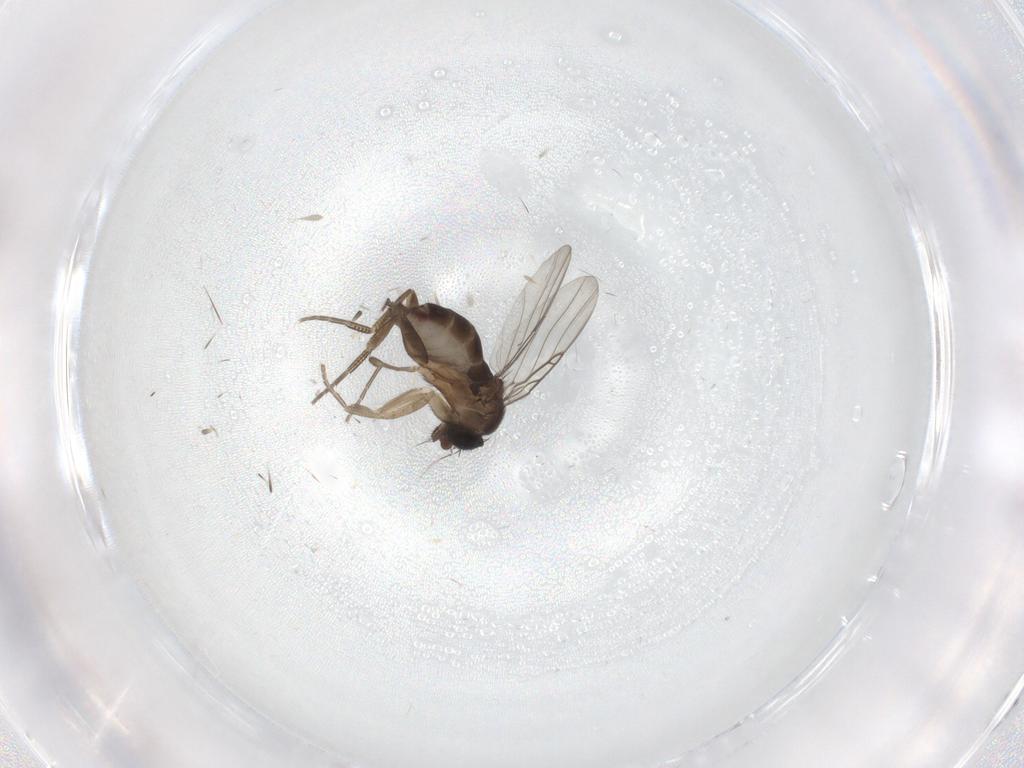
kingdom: Animalia
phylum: Arthropoda
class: Insecta
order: Diptera
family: Phoridae
